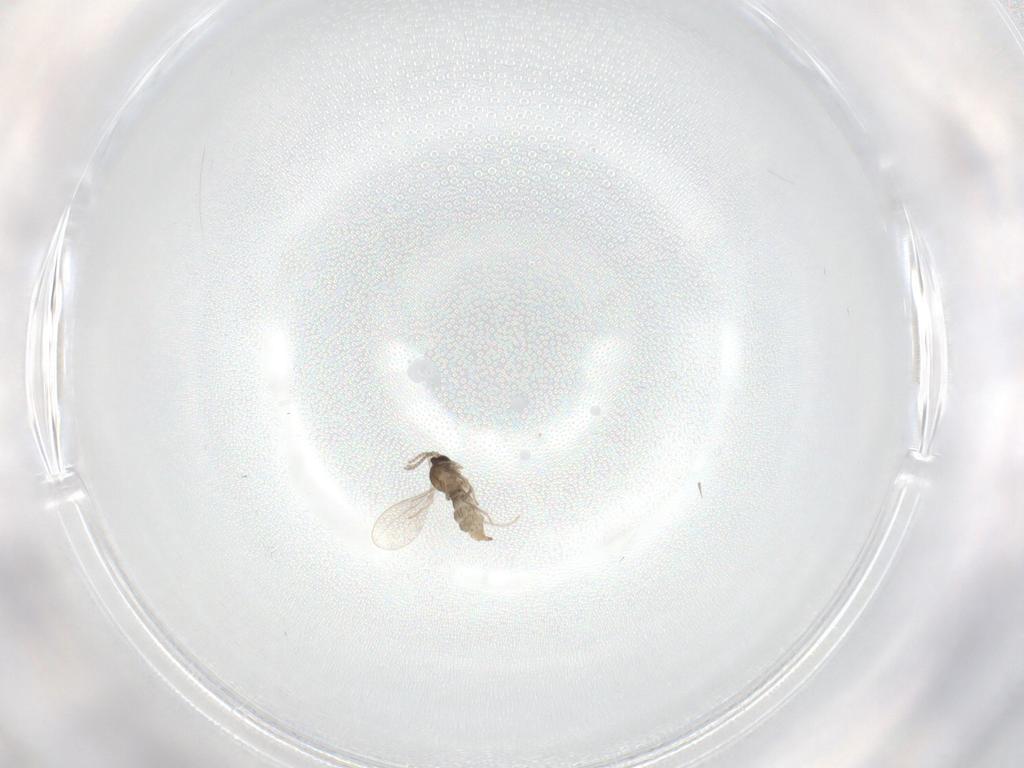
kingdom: Animalia
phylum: Arthropoda
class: Insecta
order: Diptera
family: Cecidomyiidae
